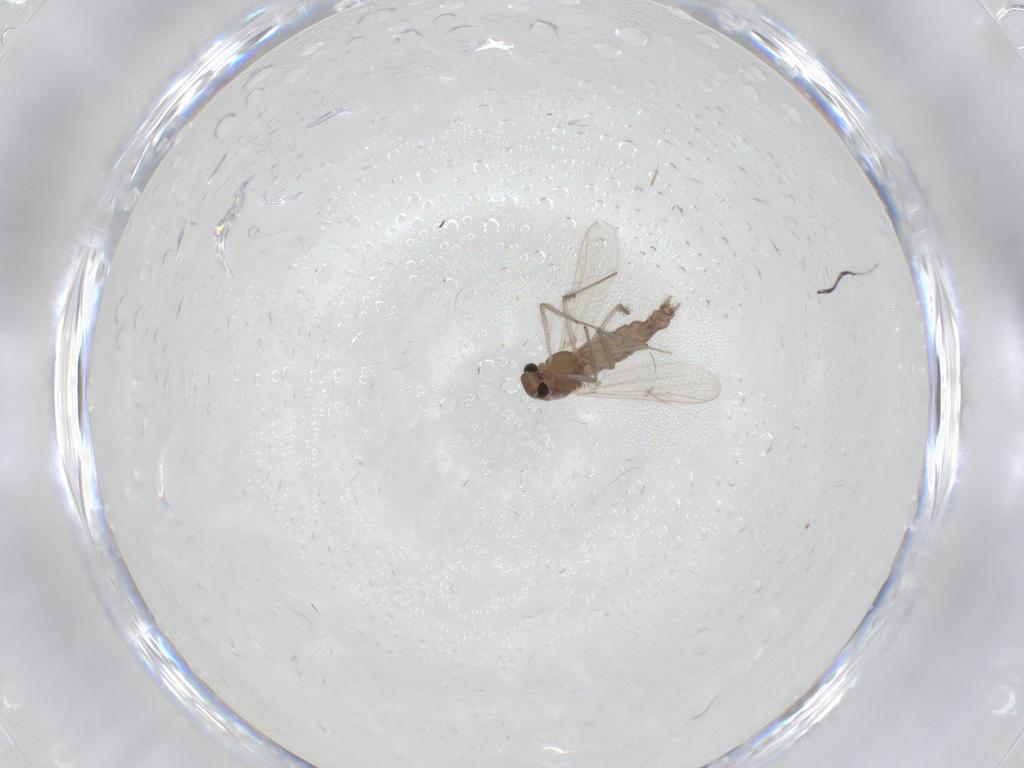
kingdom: Animalia
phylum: Arthropoda
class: Insecta
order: Diptera
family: Chironomidae
